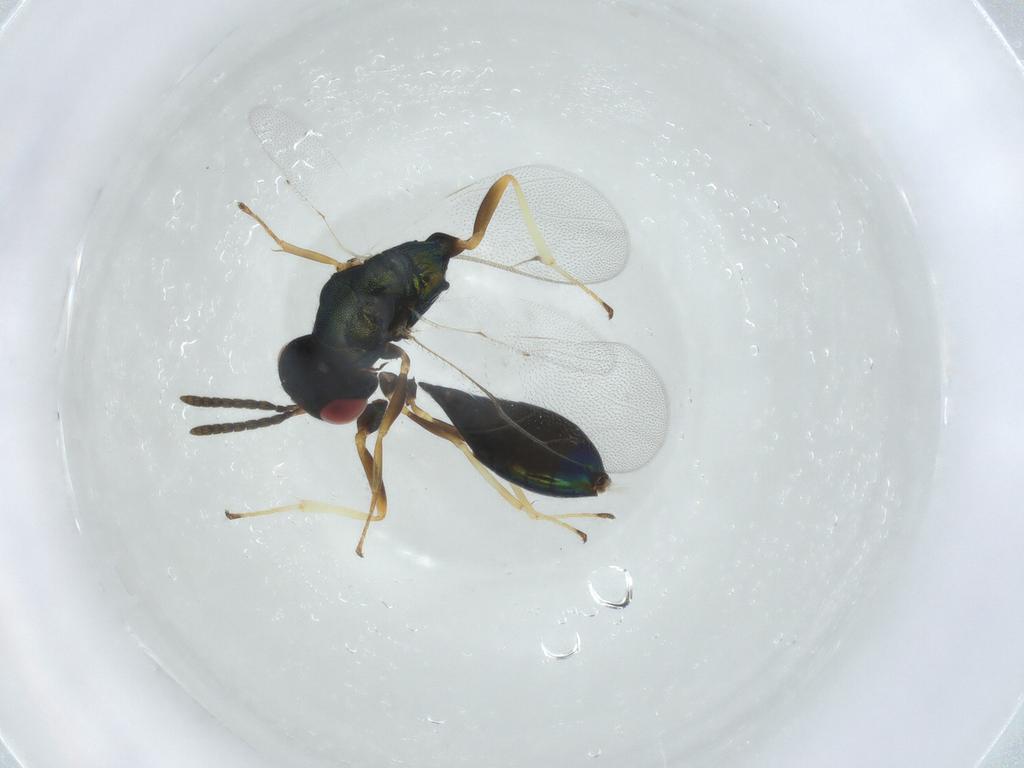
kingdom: Animalia
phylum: Arthropoda
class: Insecta
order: Hymenoptera
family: Pteromalidae
